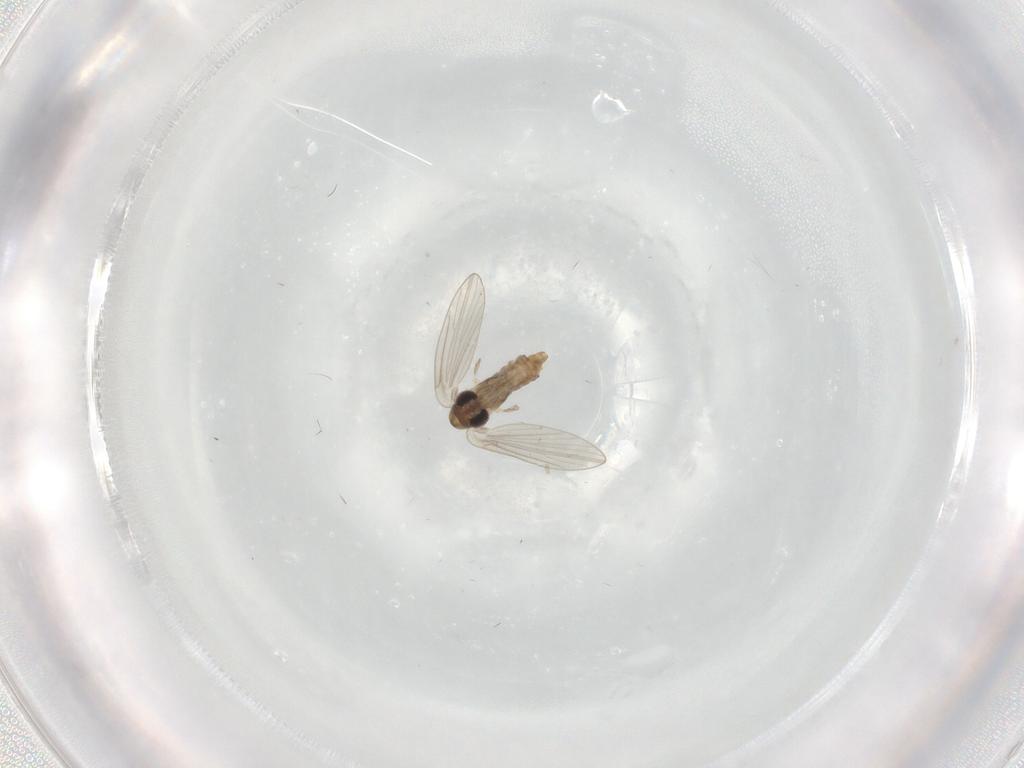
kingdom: Animalia
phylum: Arthropoda
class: Insecta
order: Diptera
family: Psychodidae
